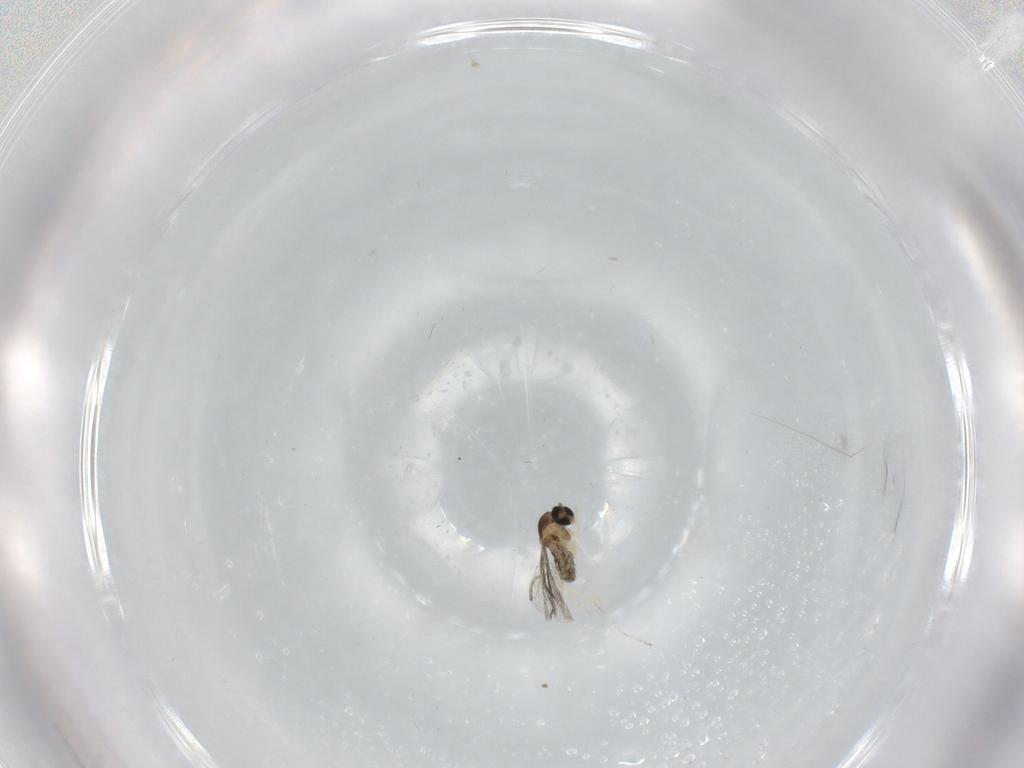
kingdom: Animalia
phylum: Arthropoda
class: Insecta
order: Diptera
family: Cecidomyiidae
